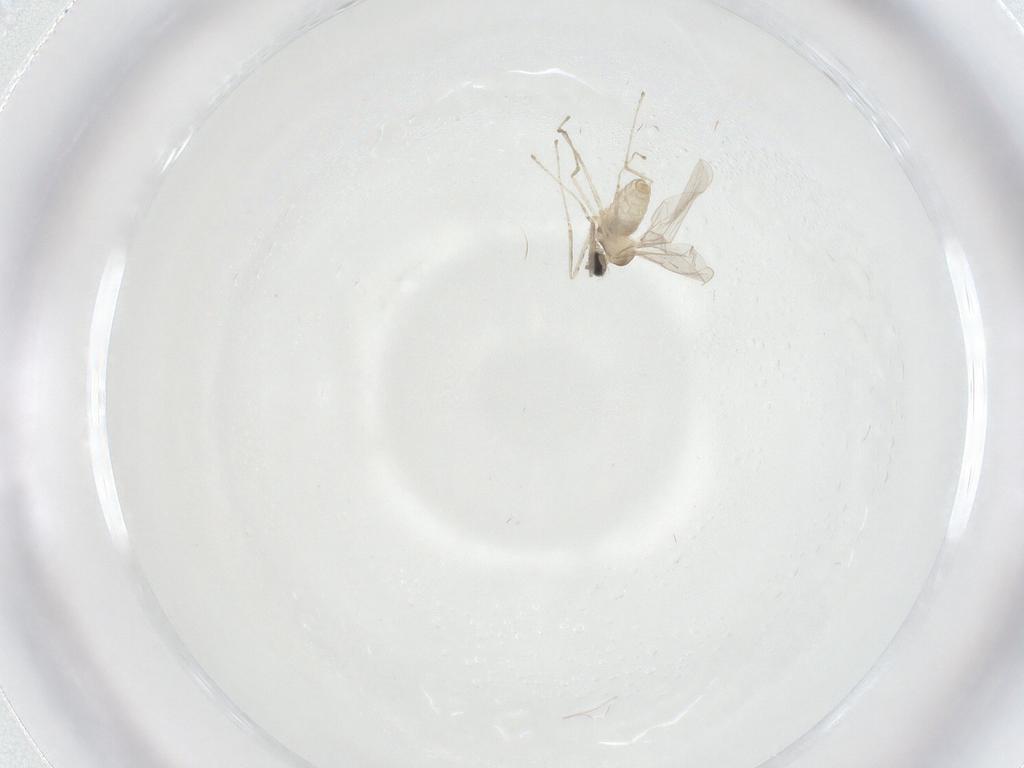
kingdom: Animalia
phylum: Arthropoda
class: Insecta
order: Diptera
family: Cecidomyiidae
